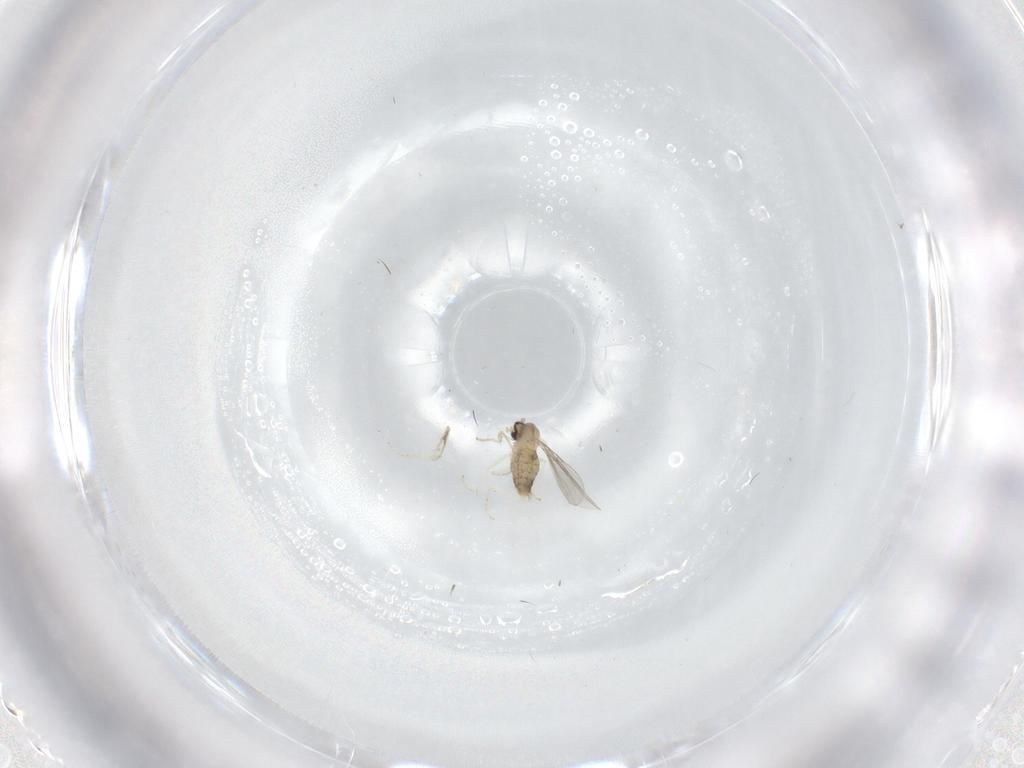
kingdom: Animalia
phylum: Arthropoda
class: Insecta
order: Diptera
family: Cecidomyiidae
